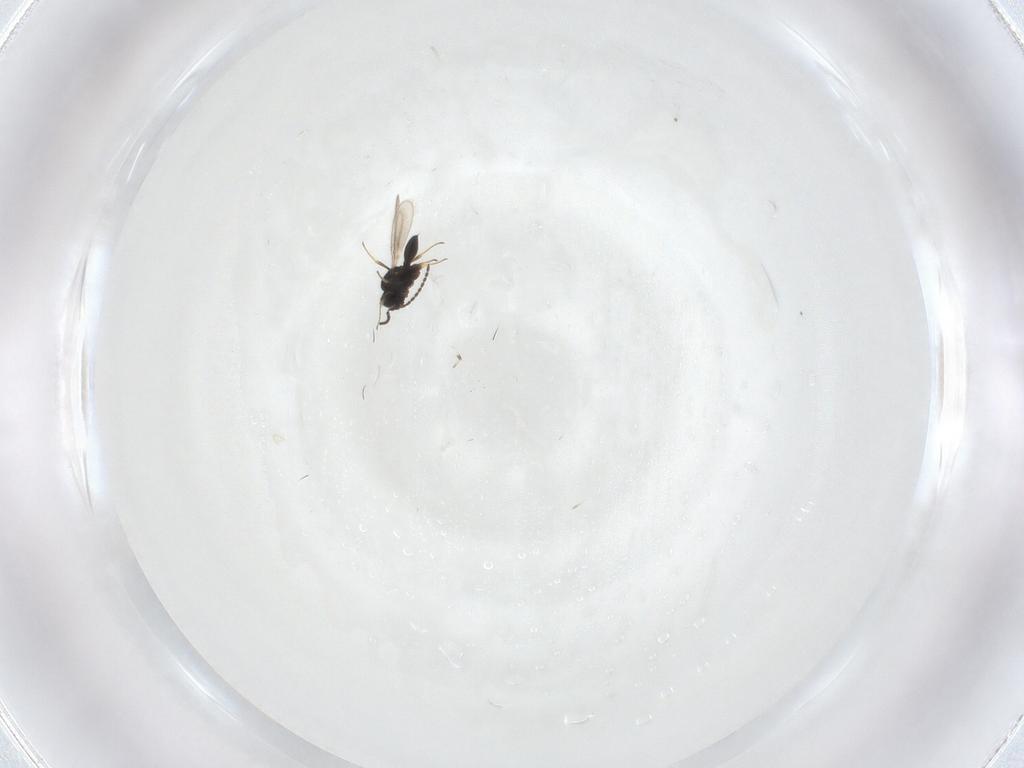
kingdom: Animalia
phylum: Arthropoda
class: Insecta
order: Hymenoptera
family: Scelionidae
